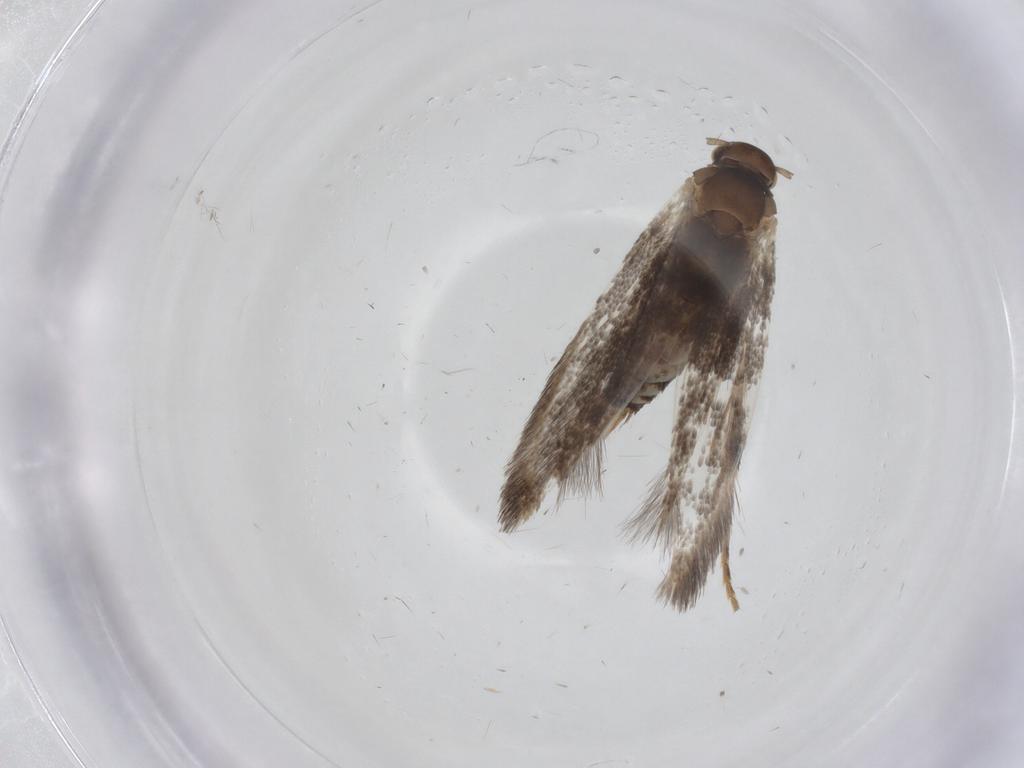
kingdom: Animalia
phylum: Arthropoda
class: Insecta
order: Lepidoptera
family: Elachistidae
